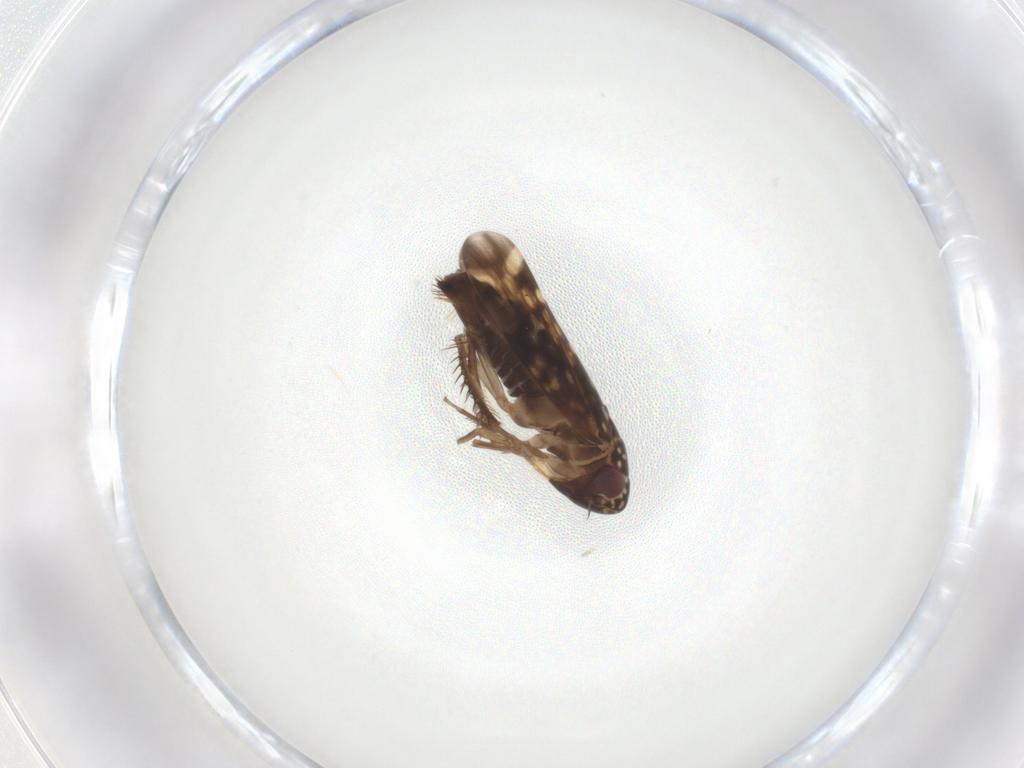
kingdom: Animalia
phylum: Arthropoda
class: Insecta
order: Hemiptera
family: Cicadellidae
